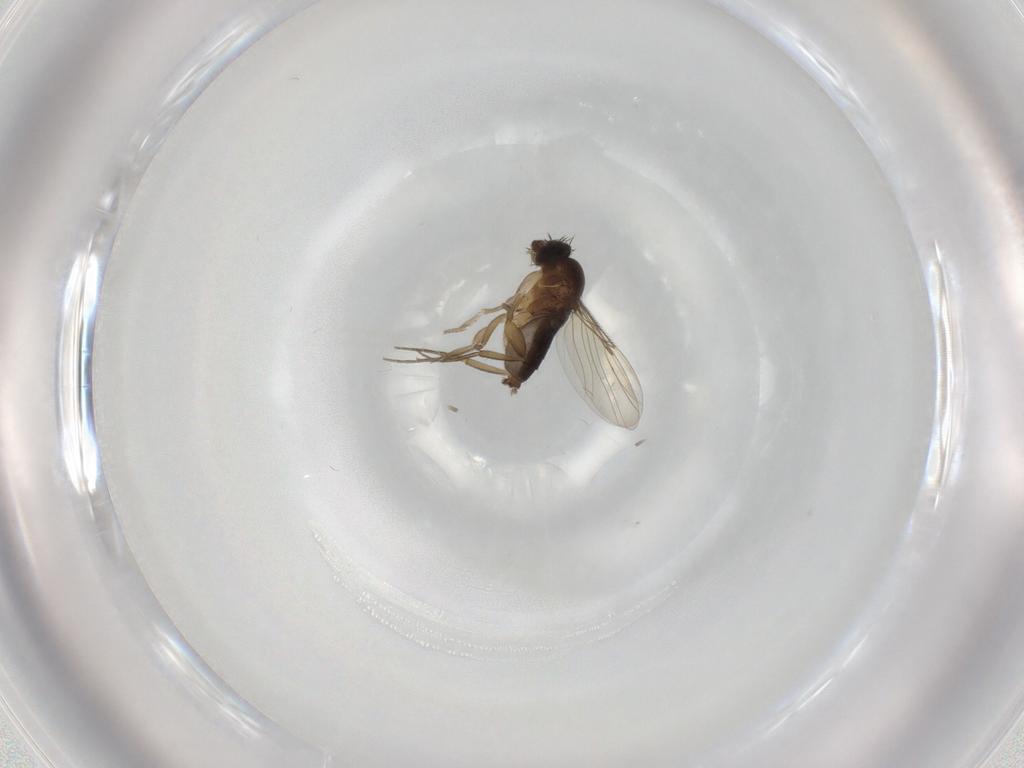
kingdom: Animalia
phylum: Arthropoda
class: Insecta
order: Diptera
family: Phoridae
